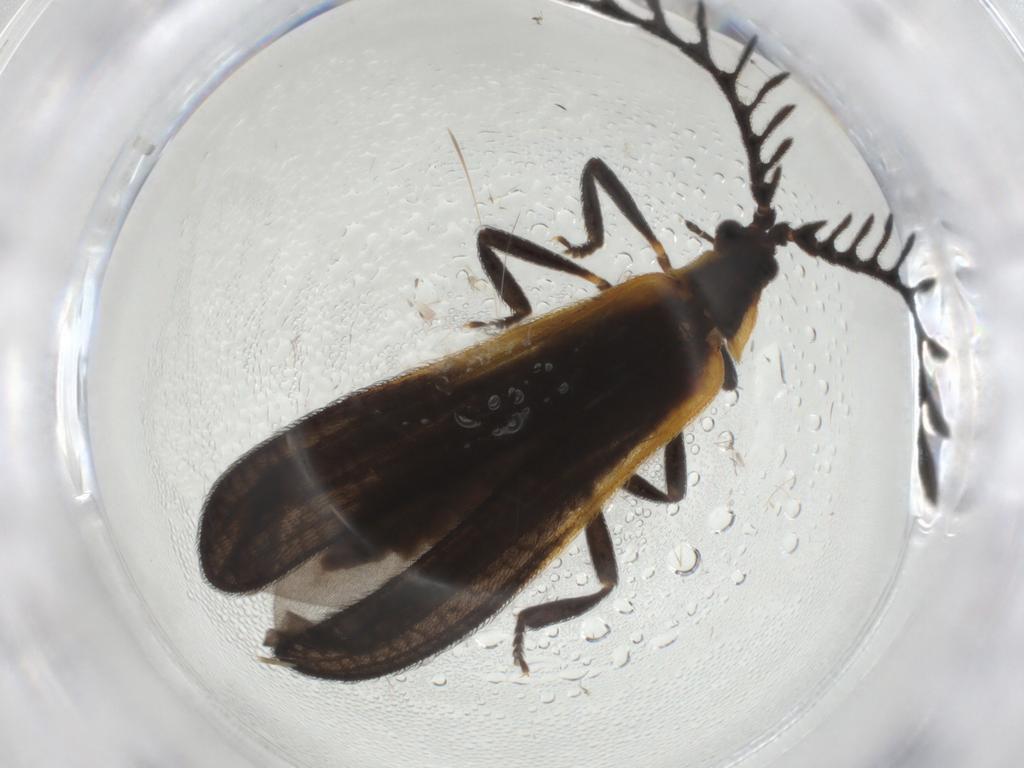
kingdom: Animalia
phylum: Arthropoda
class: Insecta
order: Coleoptera
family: Lycidae
